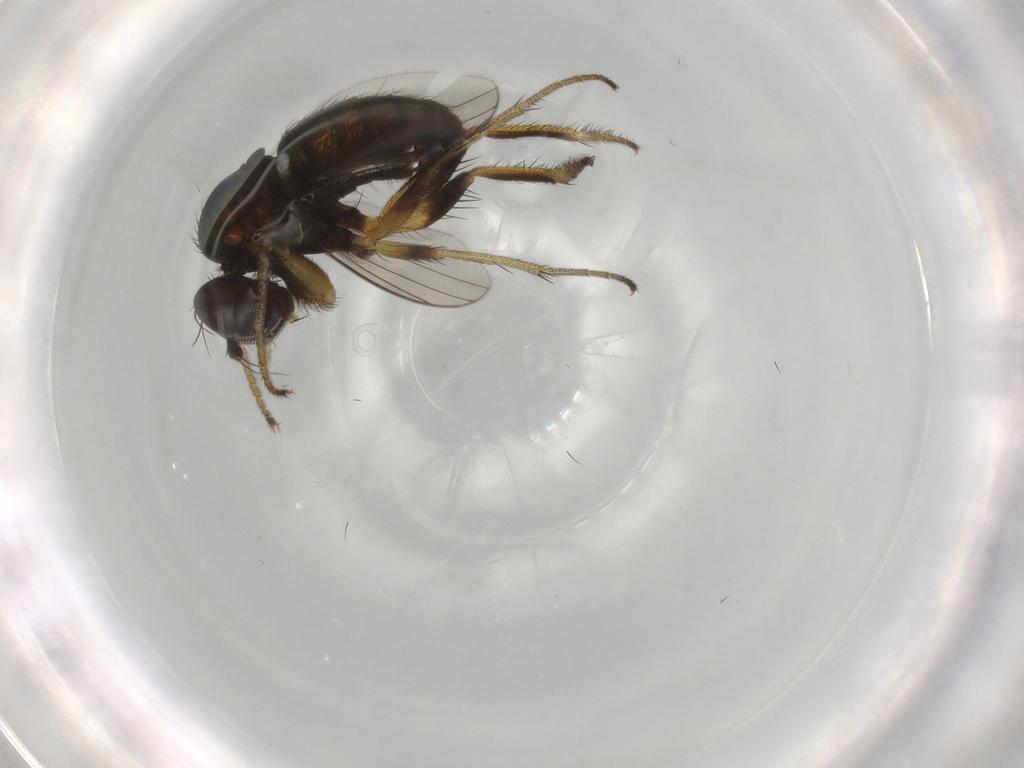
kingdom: Animalia
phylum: Arthropoda
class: Insecta
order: Diptera
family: Dolichopodidae
